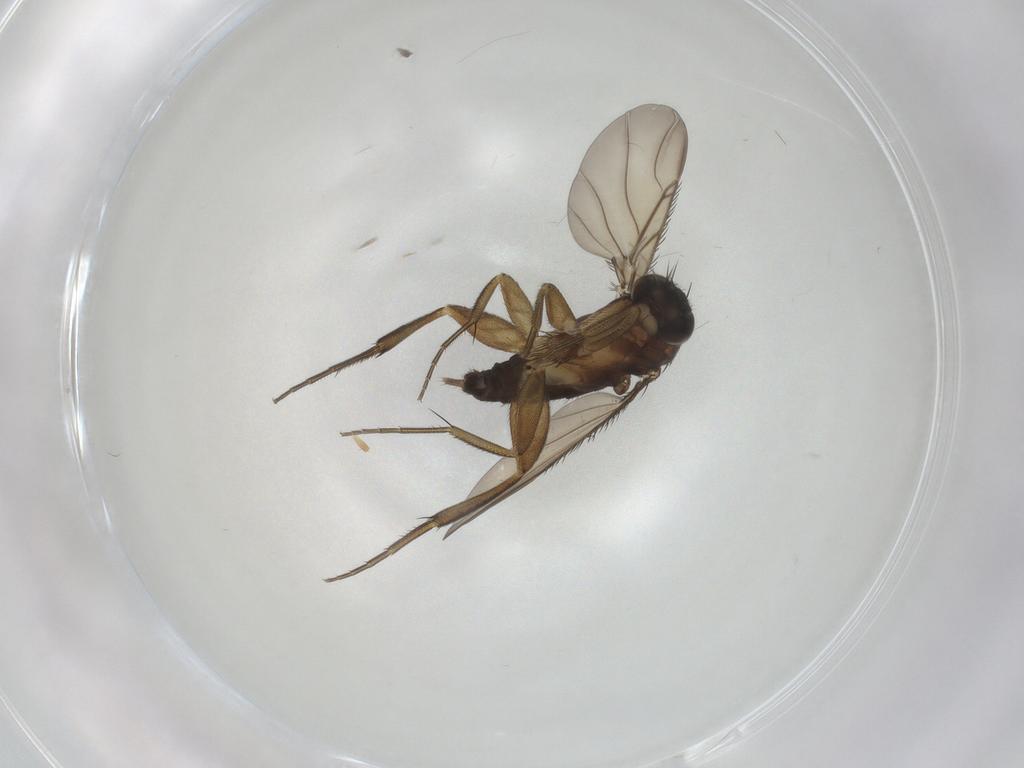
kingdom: Animalia
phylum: Arthropoda
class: Insecta
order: Diptera
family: Phoridae
